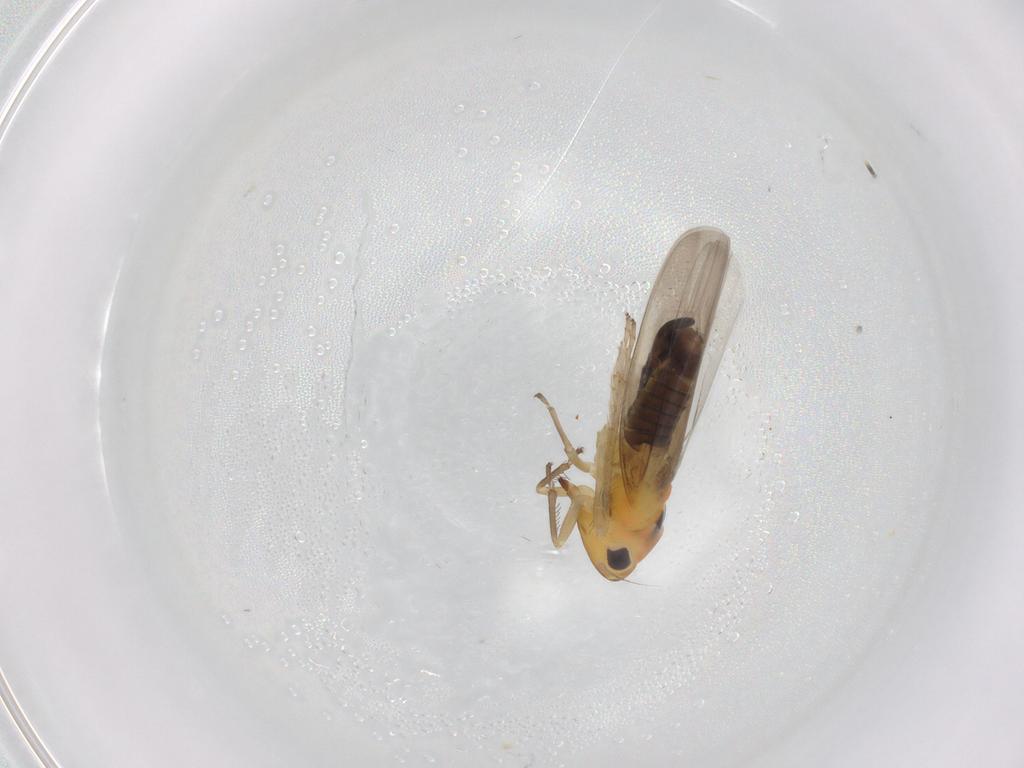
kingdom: Animalia
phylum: Arthropoda
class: Insecta
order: Hemiptera
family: Cicadellidae
